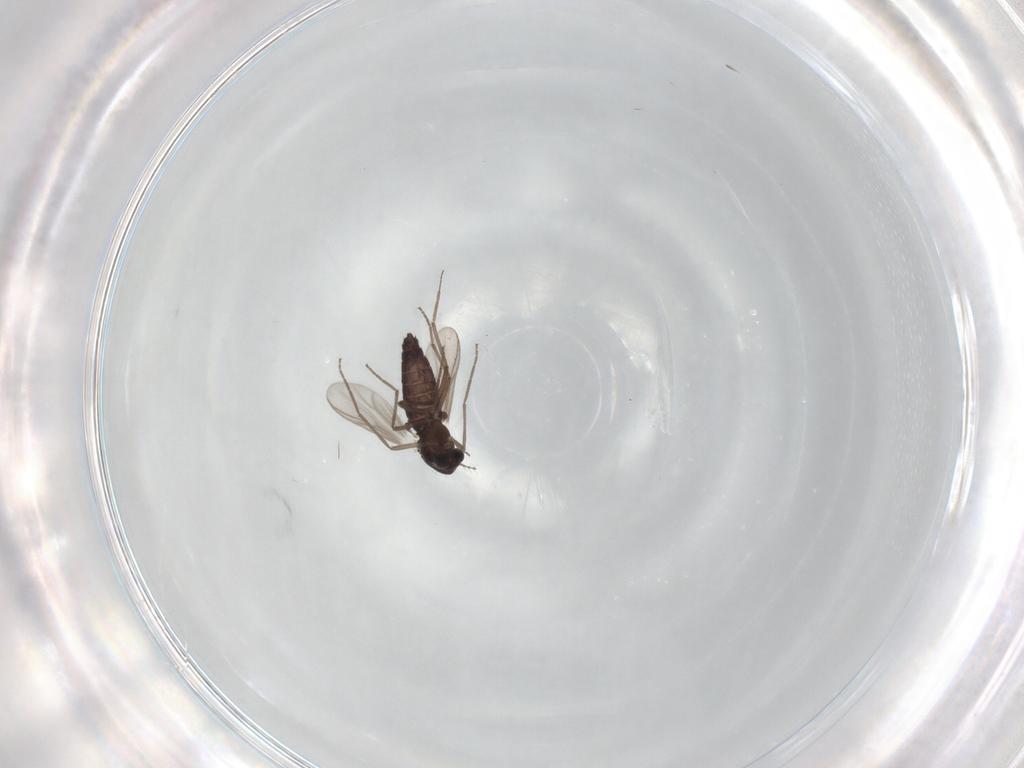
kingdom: Animalia
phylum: Arthropoda
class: Insecta
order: Diptera
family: Chironomidae
